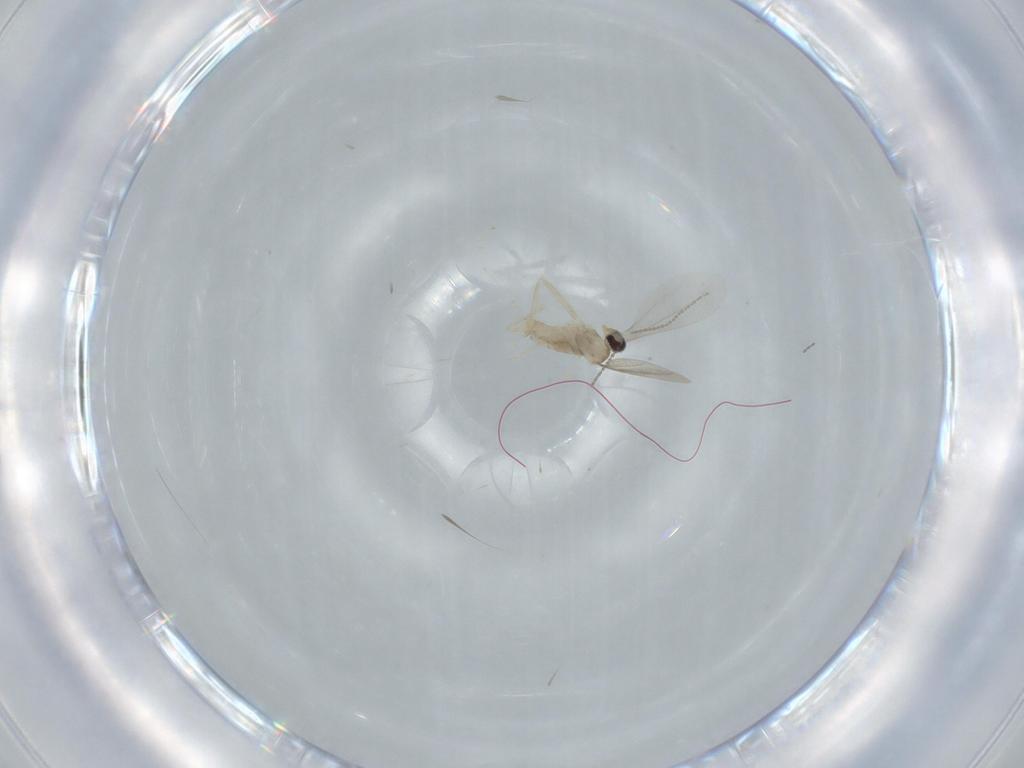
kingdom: Animalia
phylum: Arthropoda
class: Insecta
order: Diptera
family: Cecidomyiidae
